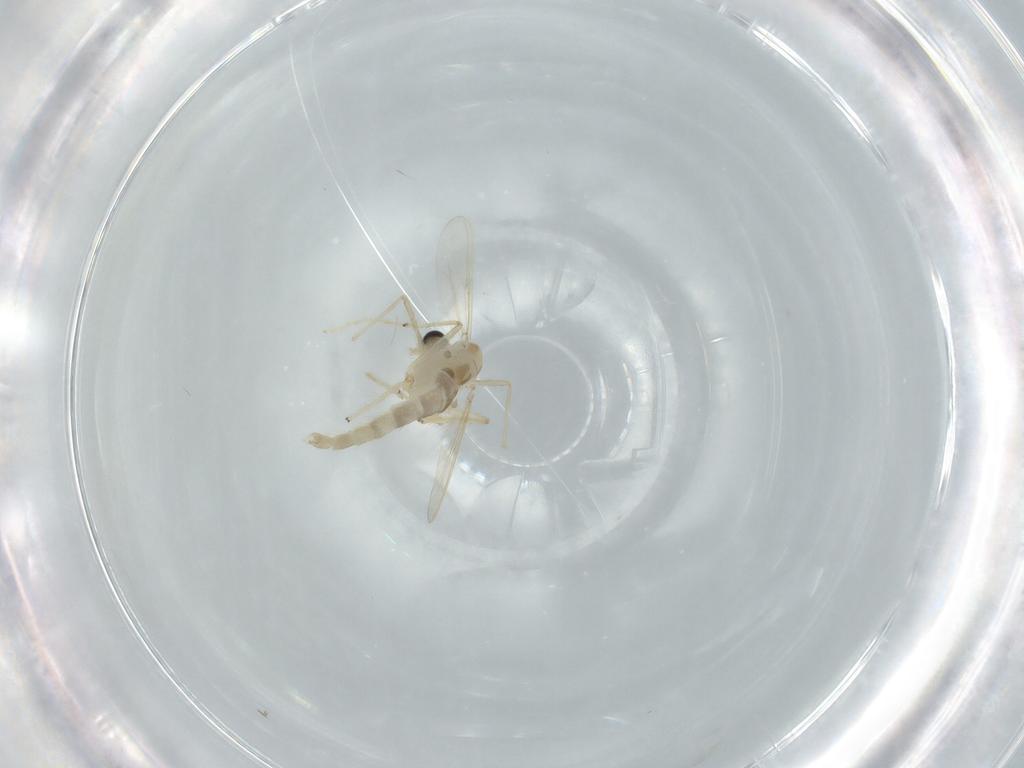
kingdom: Animalia
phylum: Arthropoda
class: Insecta
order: Diptera
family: Chironomidae
